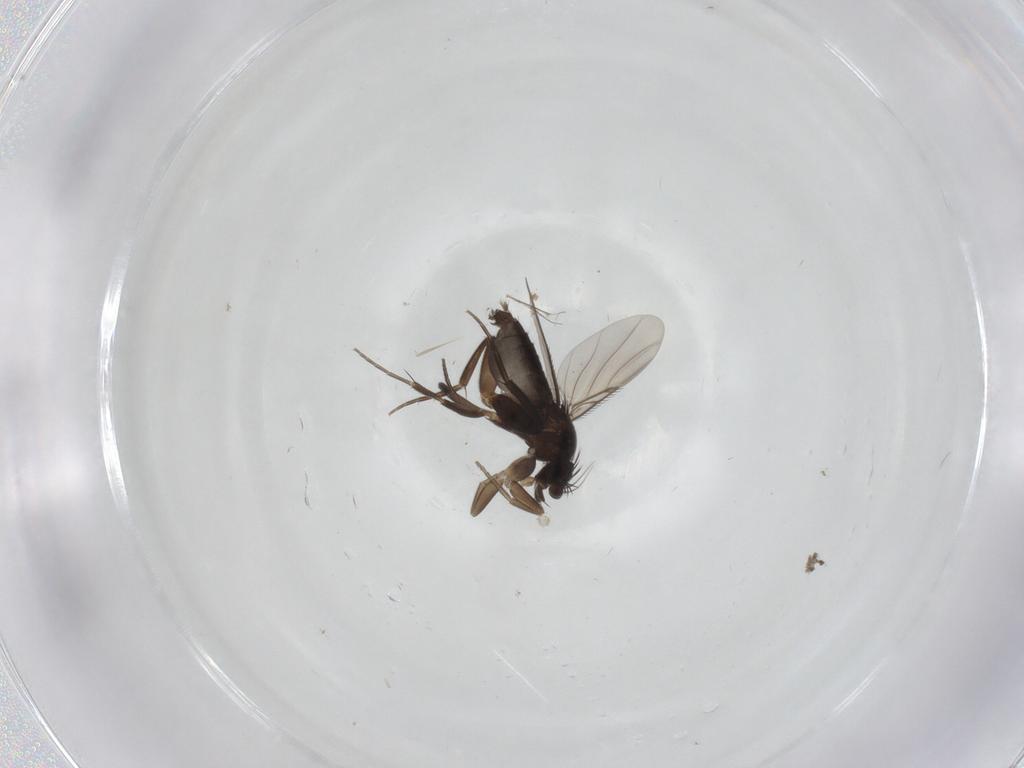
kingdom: Animalia
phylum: Arthropoda
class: Insecta
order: Diptera
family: Phoridae
